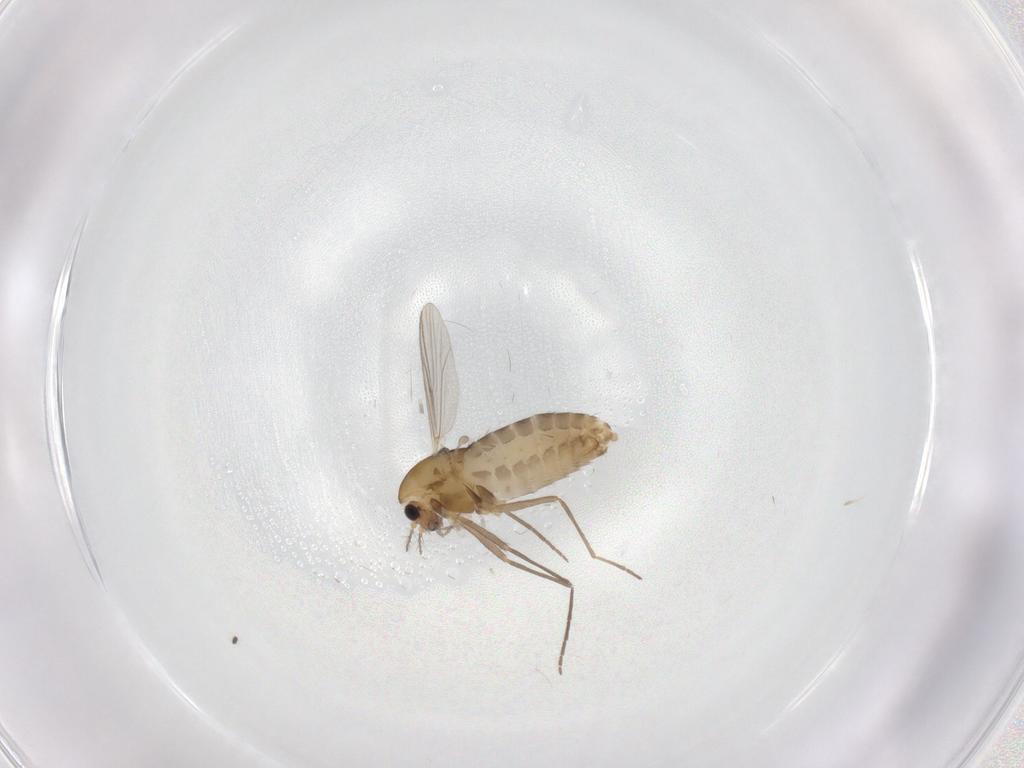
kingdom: Animalia
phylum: Arthropoda
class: Insecta
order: Diptera
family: Chironomidae
